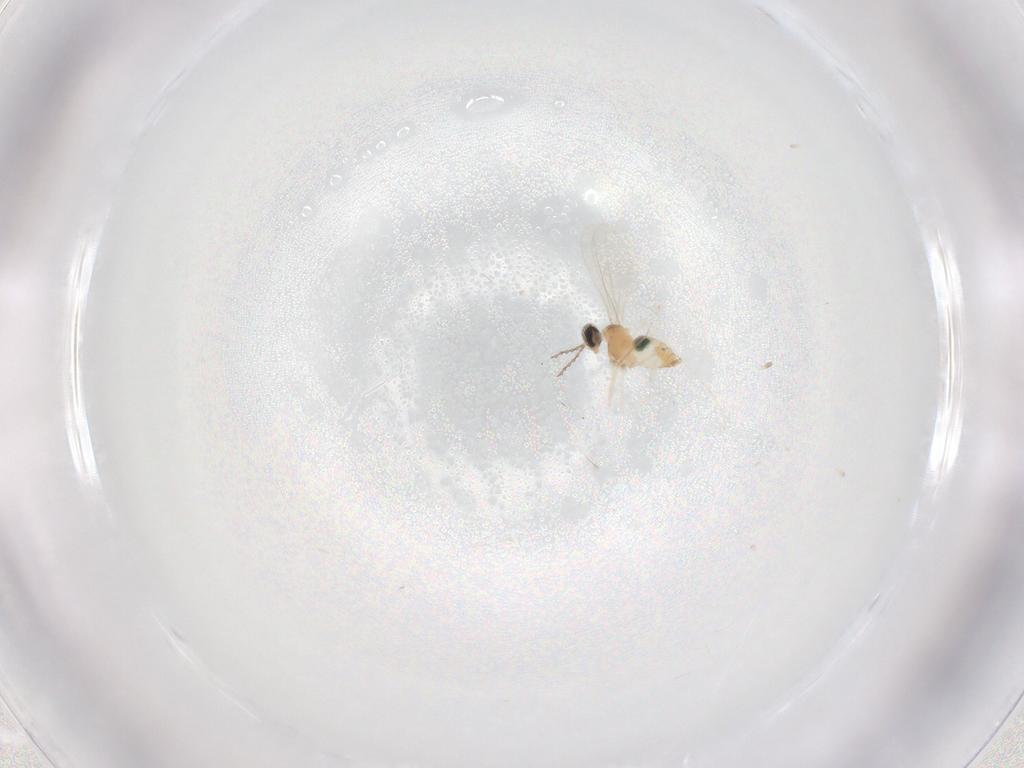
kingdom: Animalia
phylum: Arthropoda
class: Insecta
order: Diptera
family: Cecidomyiidae
